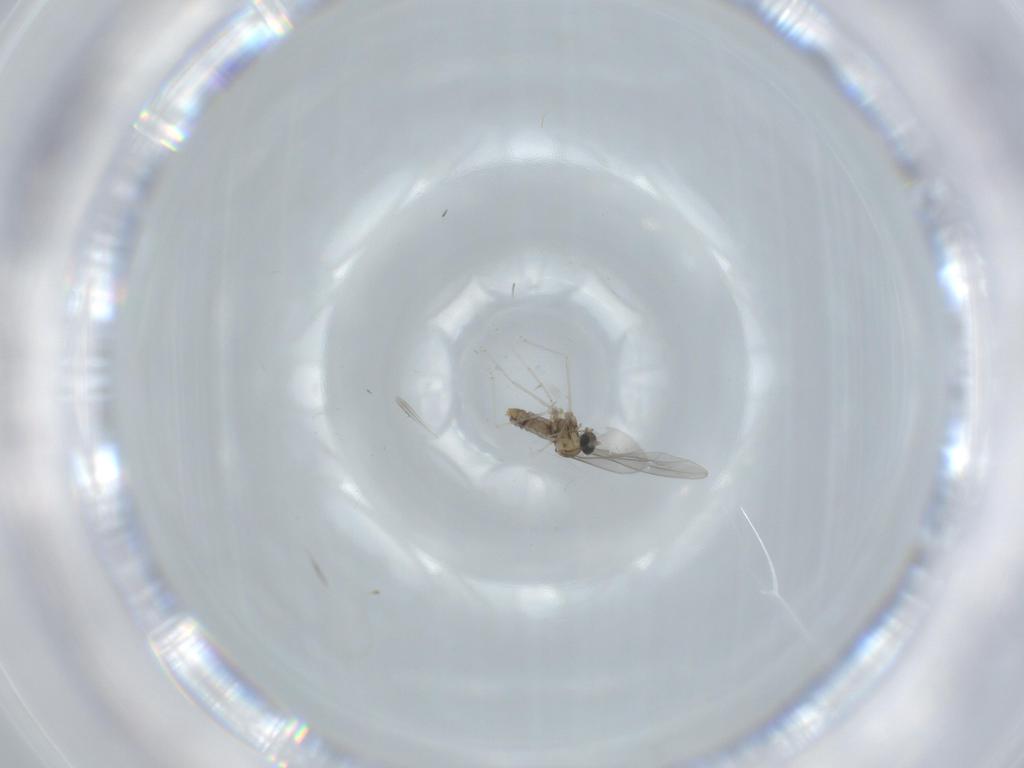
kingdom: Animalia
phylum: Arthropoda
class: Insecta
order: Diptera
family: Cecidomyiidae
